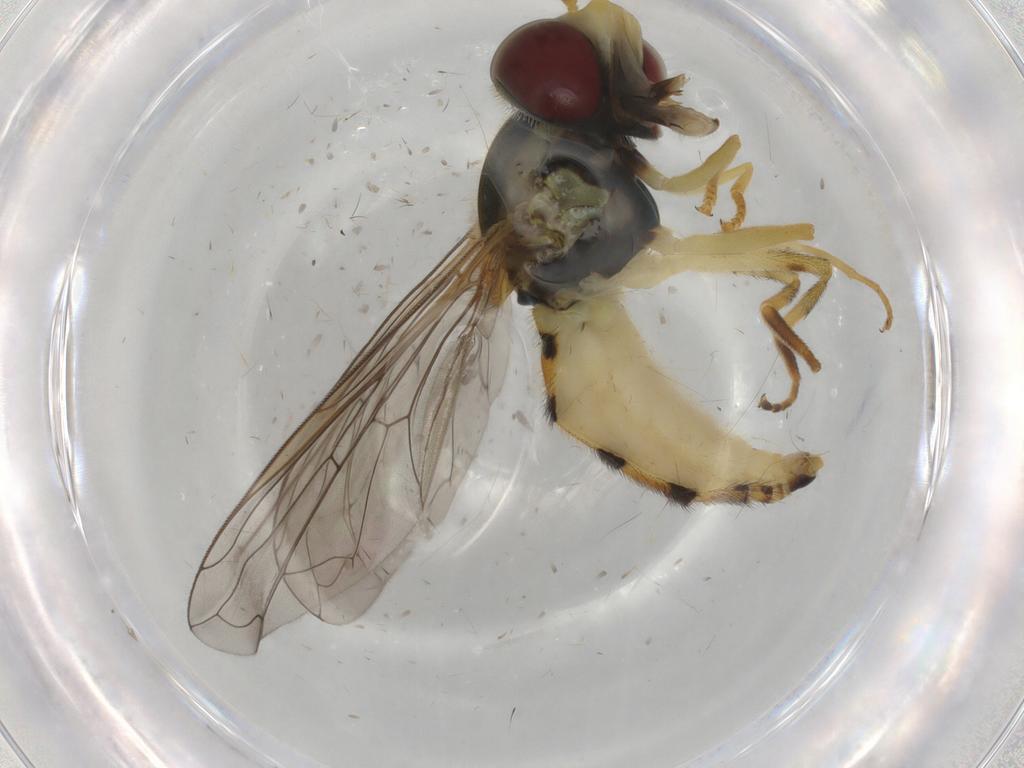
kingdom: Animalia
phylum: Arthropoda
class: Insecta
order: Diptera
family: Syrphidae
